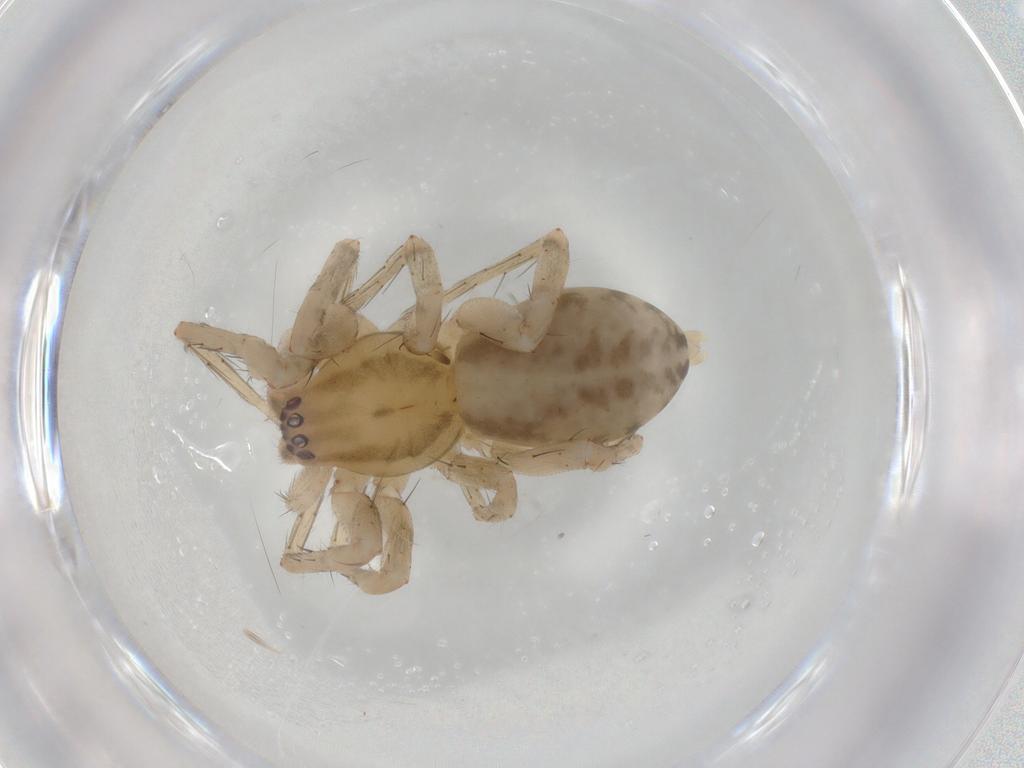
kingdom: Animalia
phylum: Arthropoda
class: Arachnida
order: Araneae
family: Anyphaenidae
